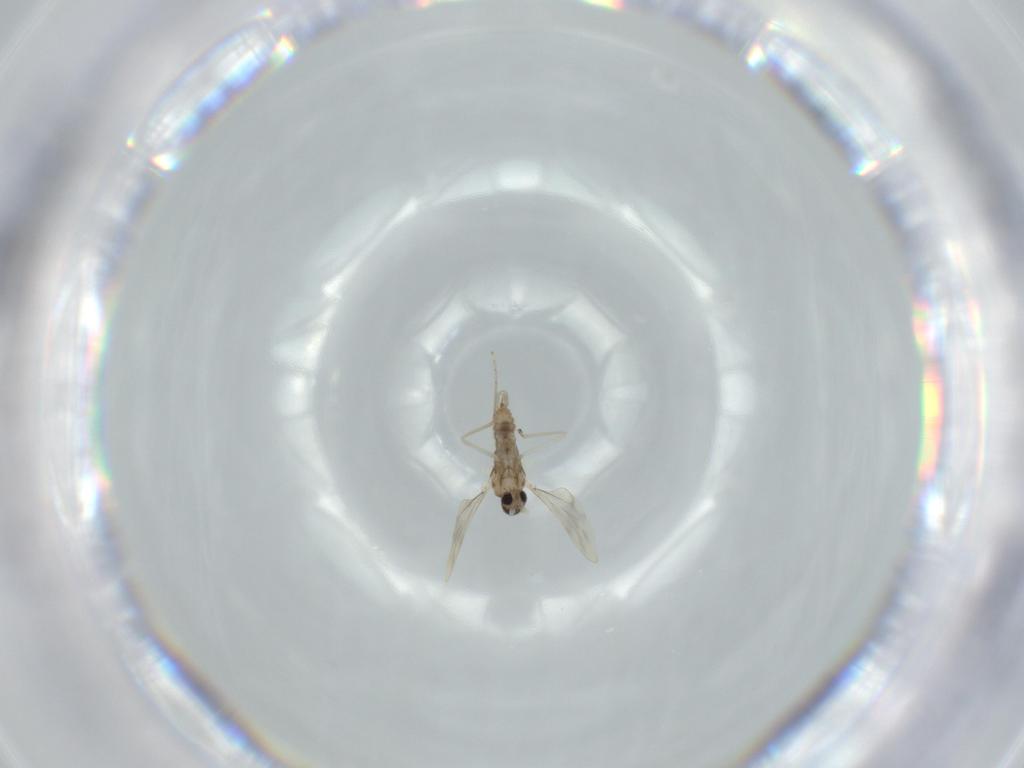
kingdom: Animalia
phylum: Arthropoda
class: Insecta
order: Diptera
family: Cecidomyiidae
